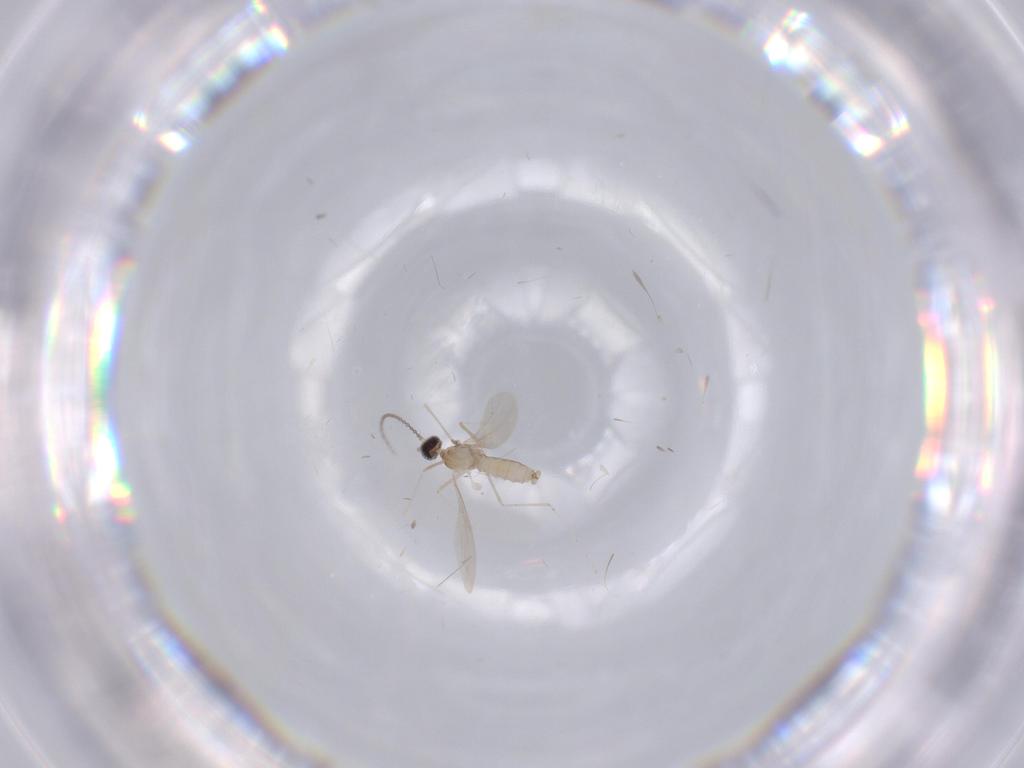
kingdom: Animalia
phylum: Arthropoda
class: Insecta
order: Diptera
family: Cecidomyiidae
